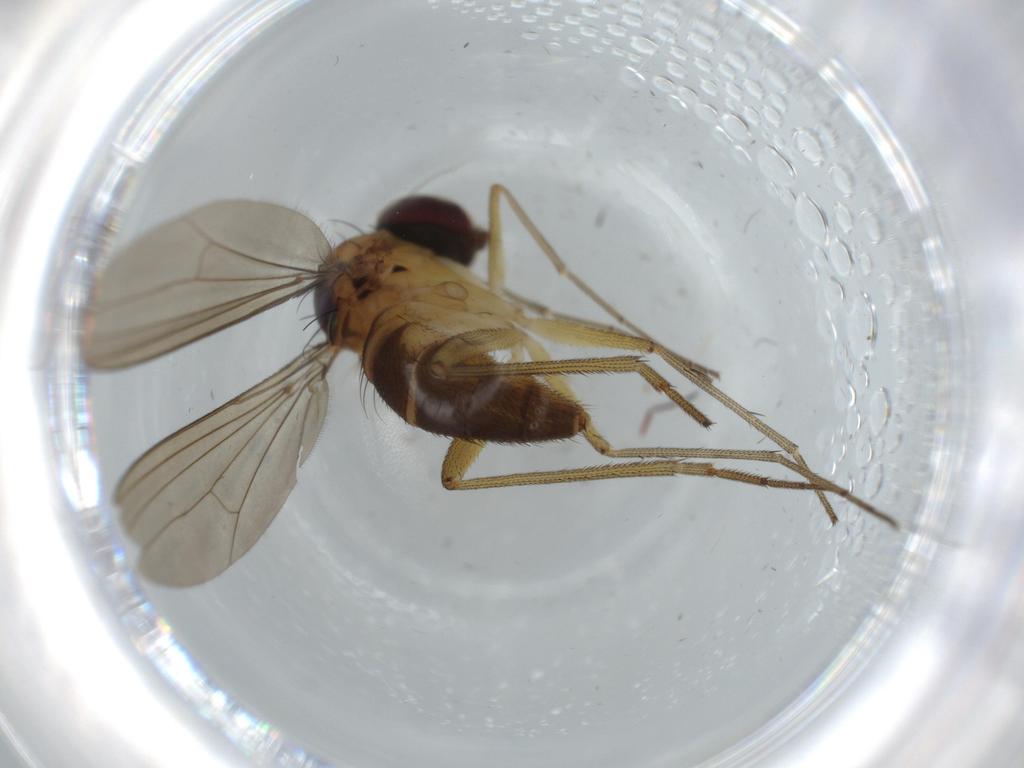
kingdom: Animalia
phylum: Arthropoda
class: Insecta
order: Diptera
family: Dolichopodidae
